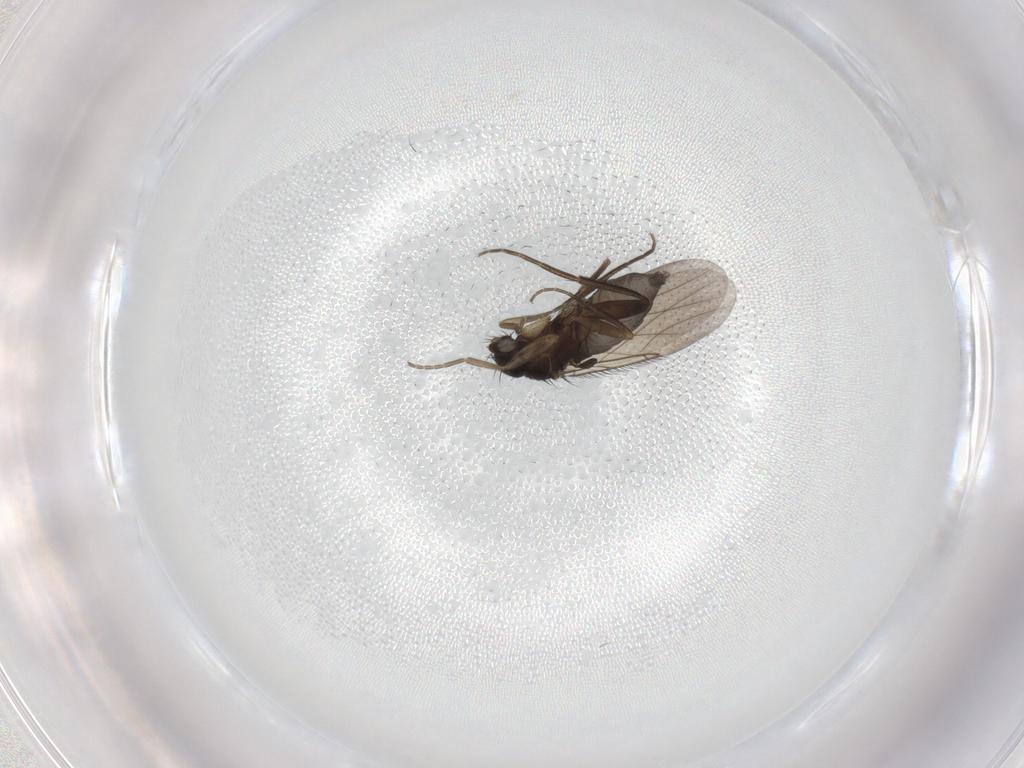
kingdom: Animalia
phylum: Arthropoda
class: Insecta
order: Diptera
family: Phoridae
